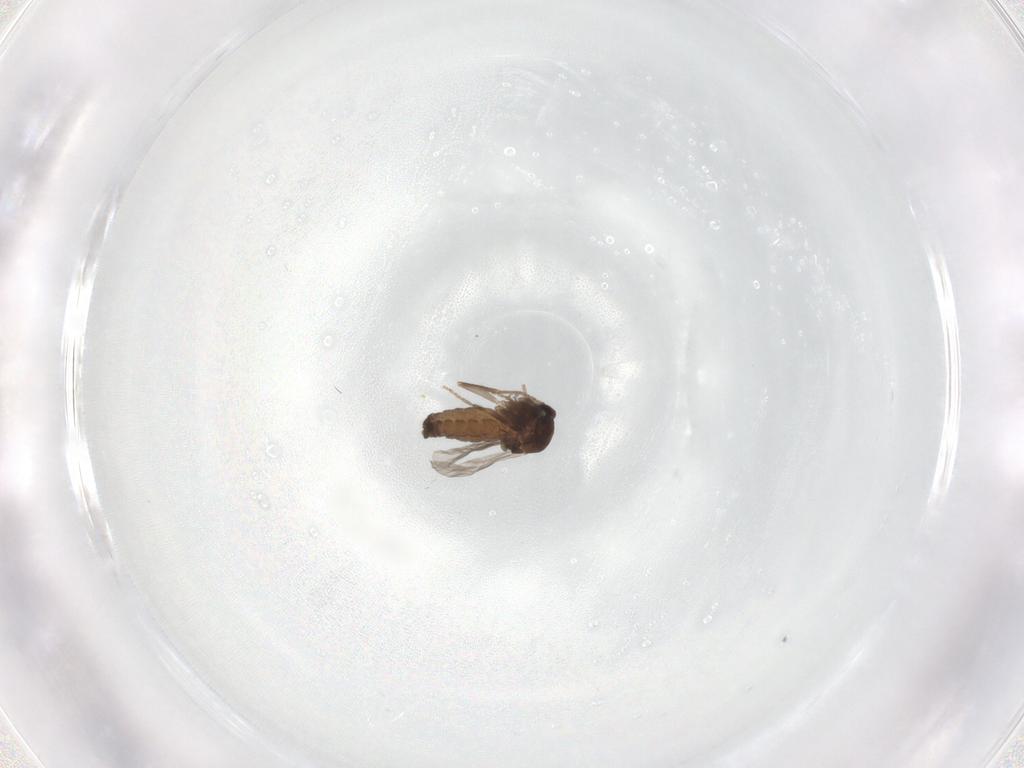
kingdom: Animalia
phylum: Arthropoda
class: Insecta
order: Diptera
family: Ceratopogonidae
